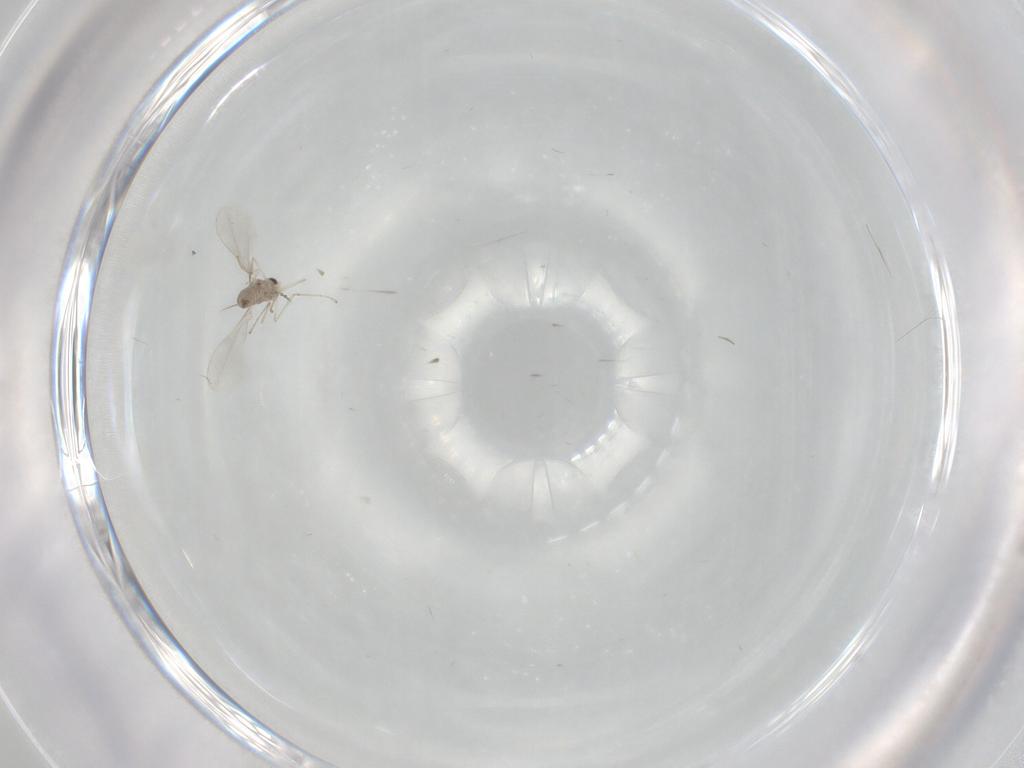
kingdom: Animalia
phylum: Arthropoda
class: Insecta
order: Diptera
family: Cecidomyiidae
